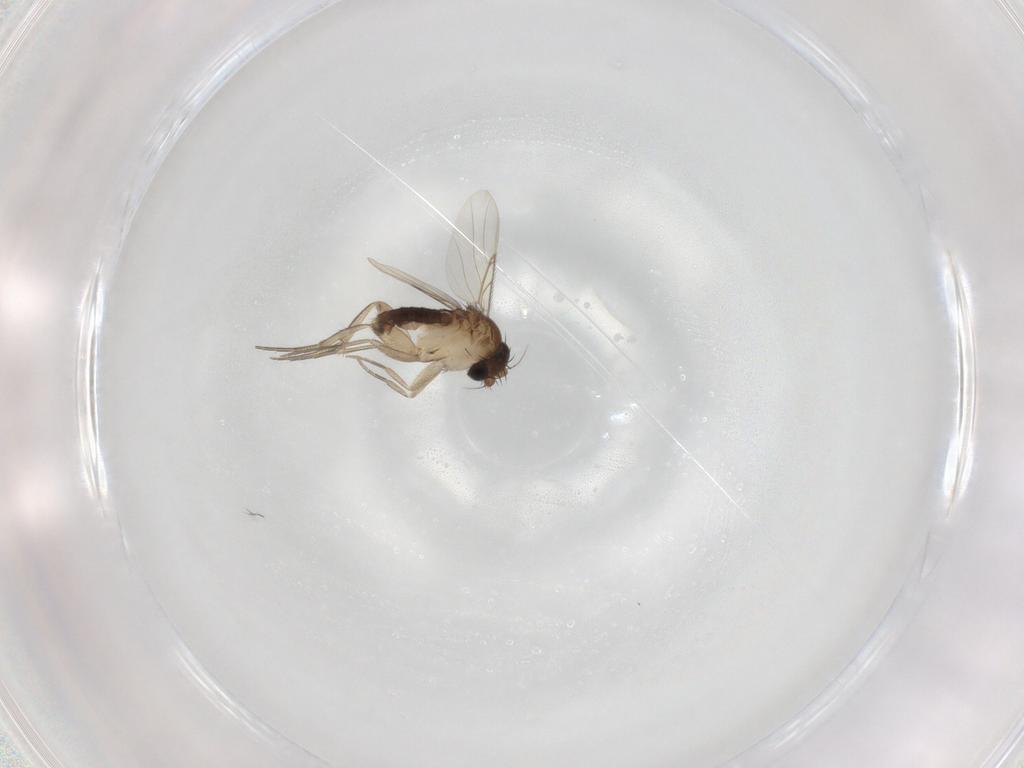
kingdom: Animalia
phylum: Arthropoda
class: Insecta
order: Diptera
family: Phoridae
